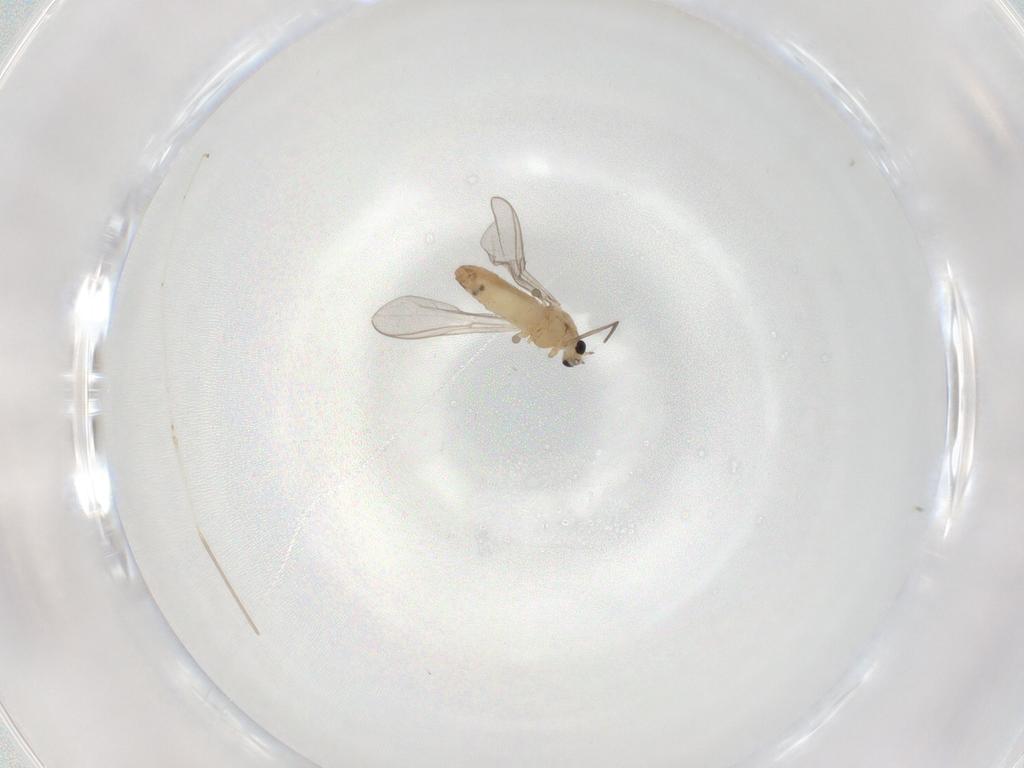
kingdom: Animalia
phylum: Arthropoda
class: Insecta
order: Diptera
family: Chironomidae
